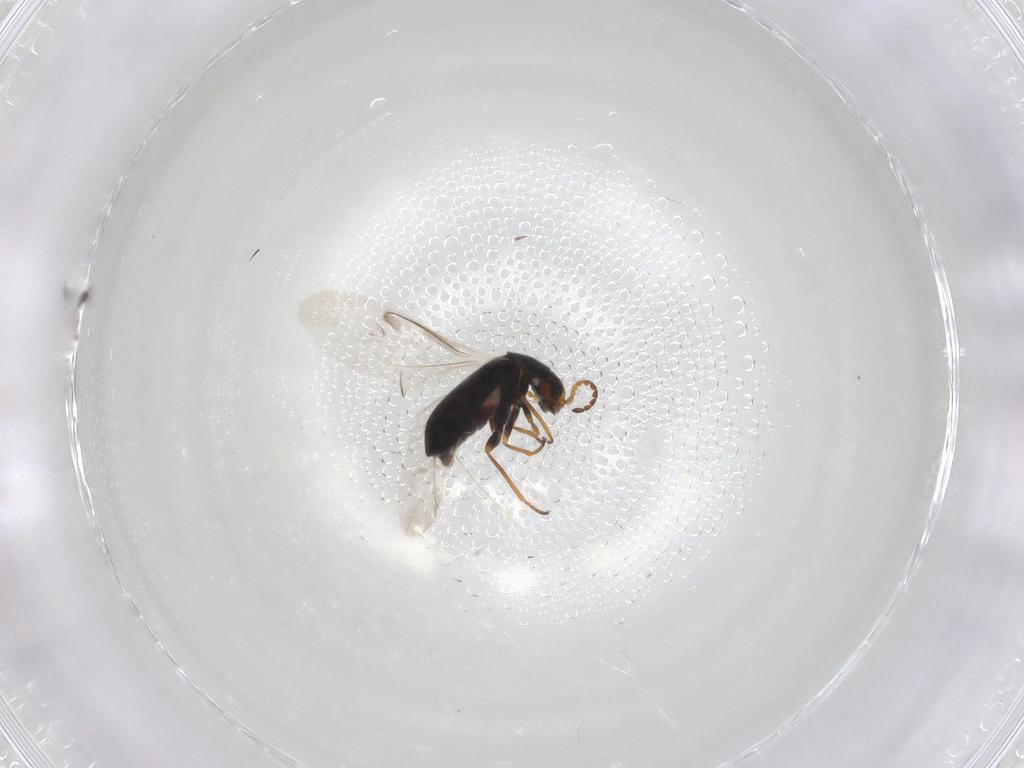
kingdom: Animalia
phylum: Arthropoda
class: Insecta
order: Coleoptera
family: Melyridae
